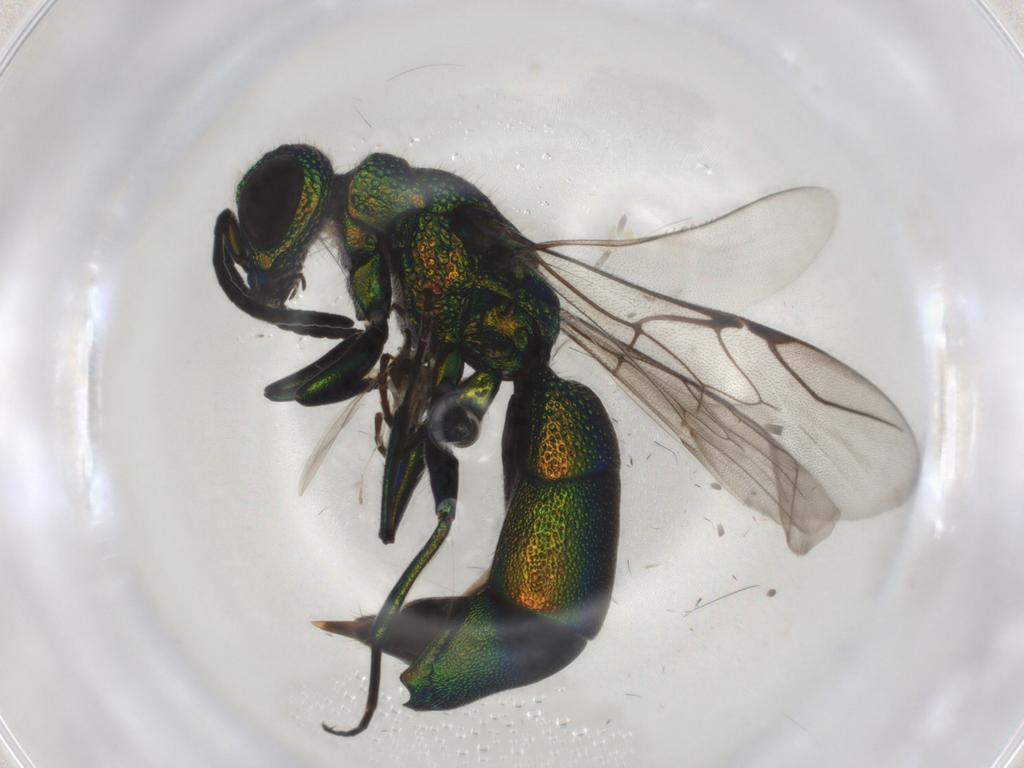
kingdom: Animalia
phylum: Arthropoda
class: Insecta
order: Hymenoptera
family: Chrysididae
